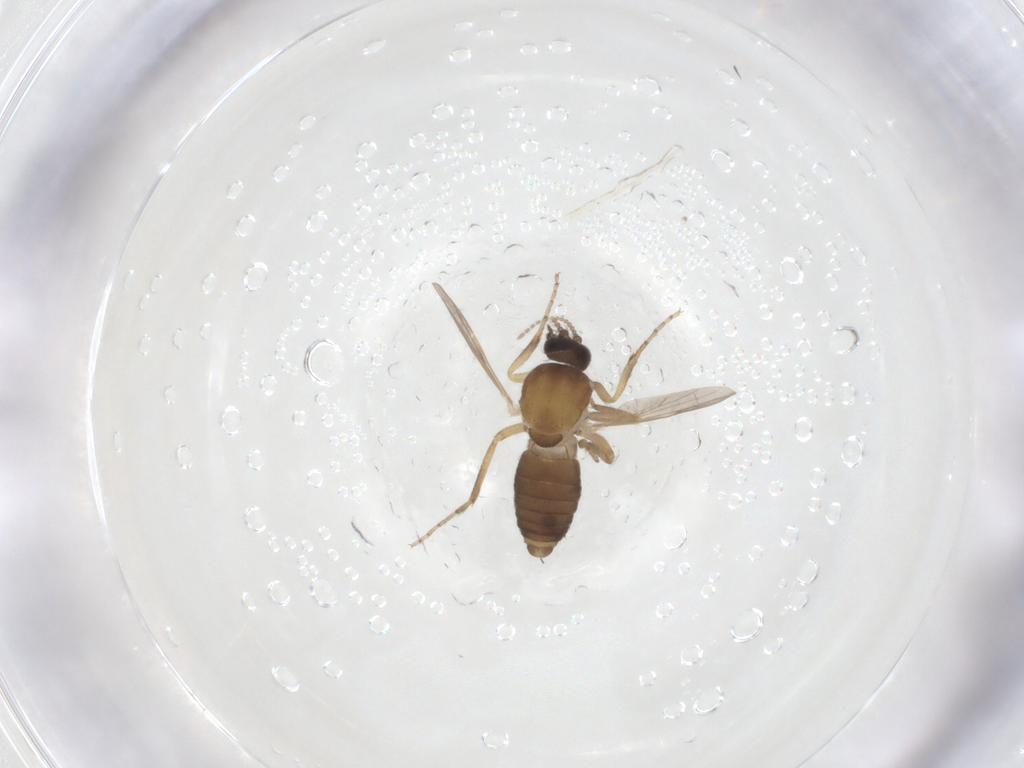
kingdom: Animalia
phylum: Arthropoda
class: Insecta
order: Diptera
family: Ceratopogonidae
